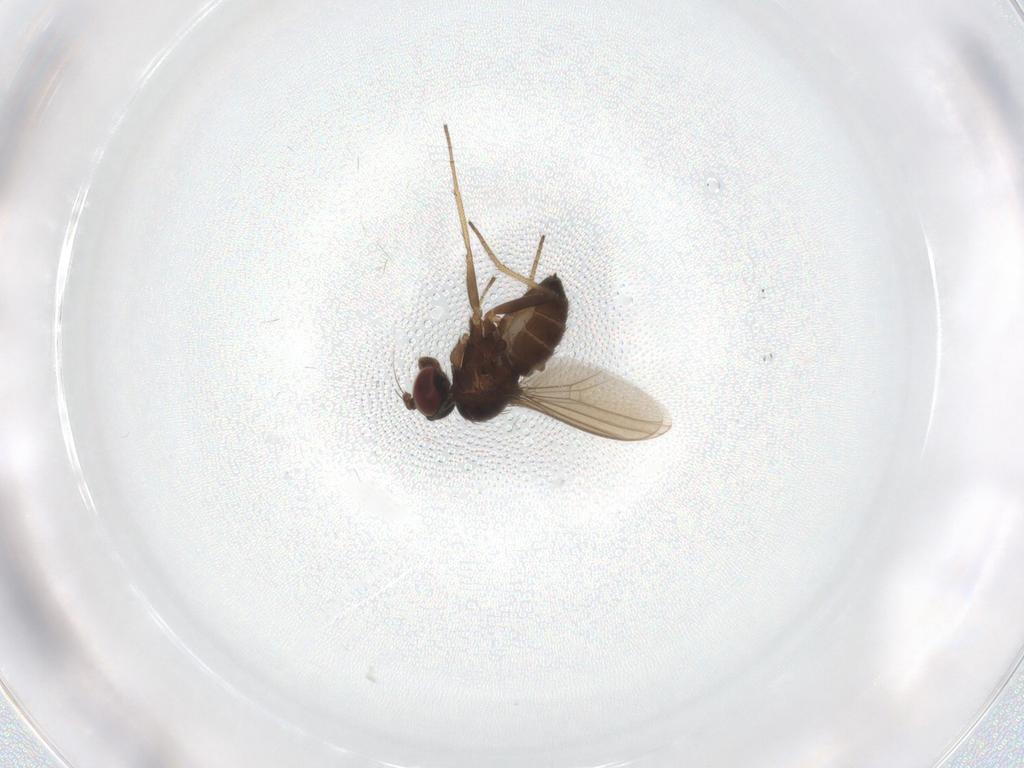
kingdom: Animalia
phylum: Arthropoda
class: Insecta
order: Diptera
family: Dolichopodidae
